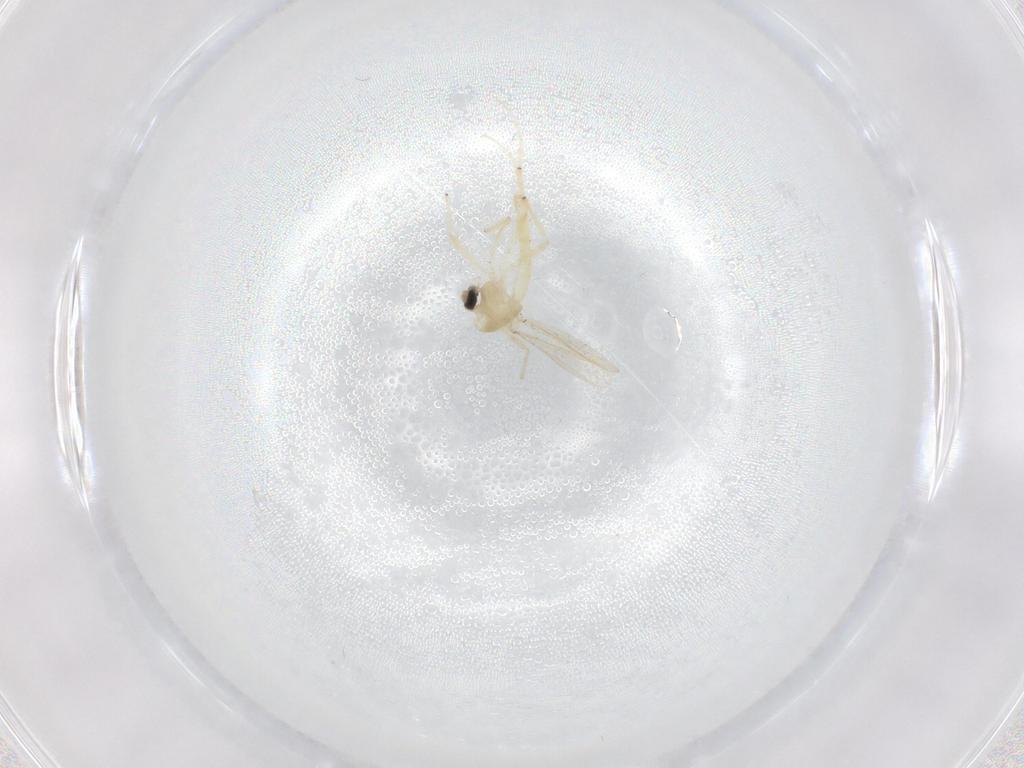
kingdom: Animalia
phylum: Arthropoda
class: Insecta
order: Diptera
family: Chironomidae
